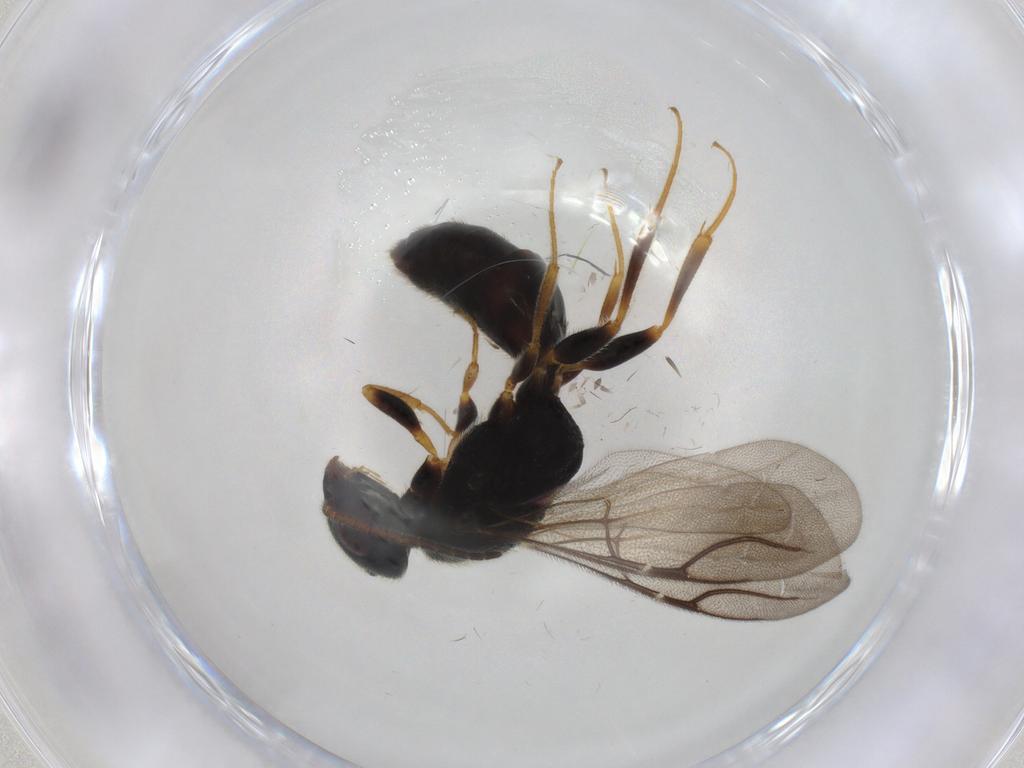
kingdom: Animalia
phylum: Arthropoda
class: Insecta
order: Hymenoptera
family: Bethylidae
